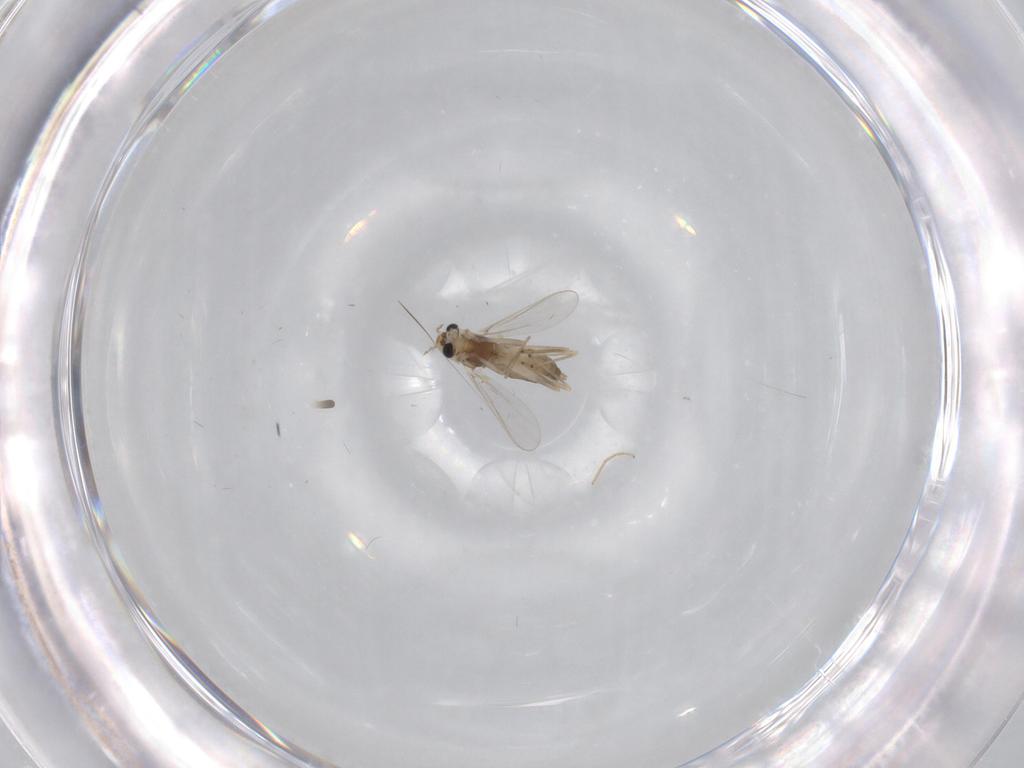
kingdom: Animalia
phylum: Arthropoda
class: Insecta
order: Diptera
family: Chironomidae
